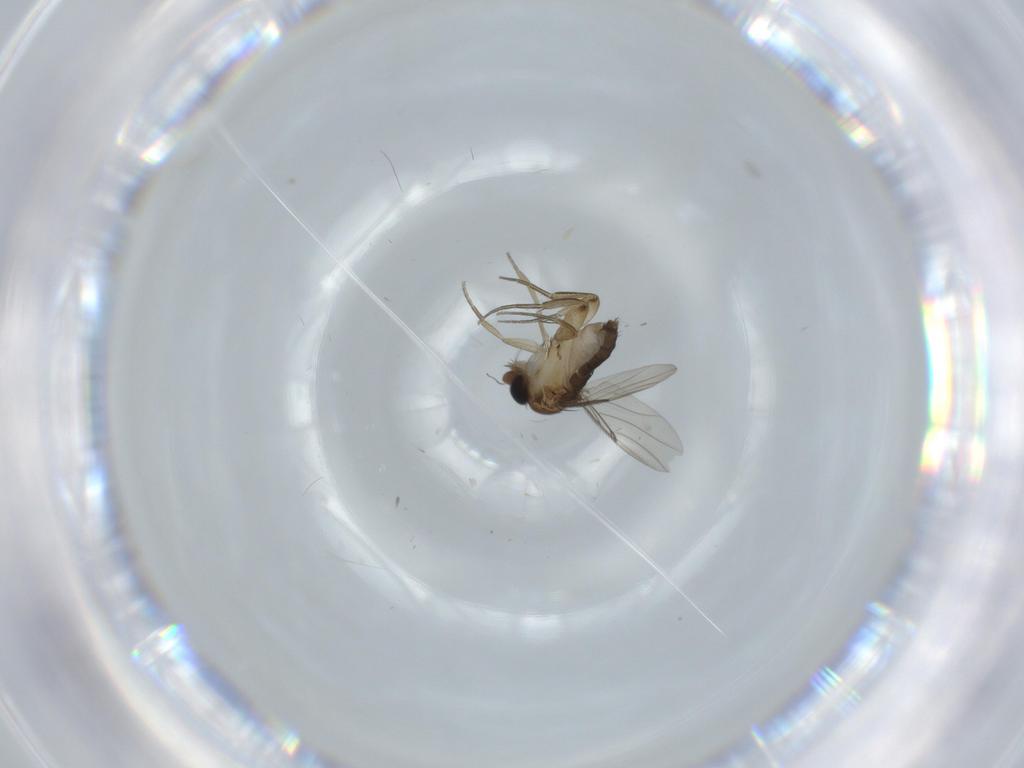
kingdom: Animalia
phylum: Arthropoda
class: Insecta
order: Diptera
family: Phoridae
